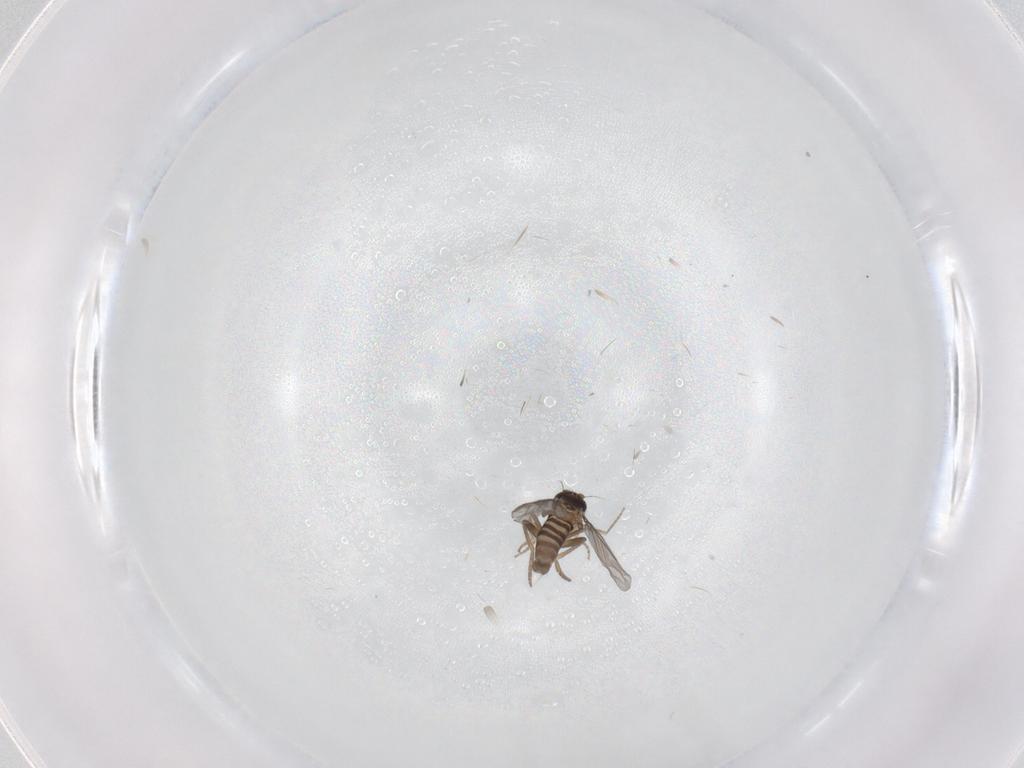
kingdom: Animalia
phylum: Arthropoda
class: Insecta
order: Diptera
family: Cecidomyiidae
